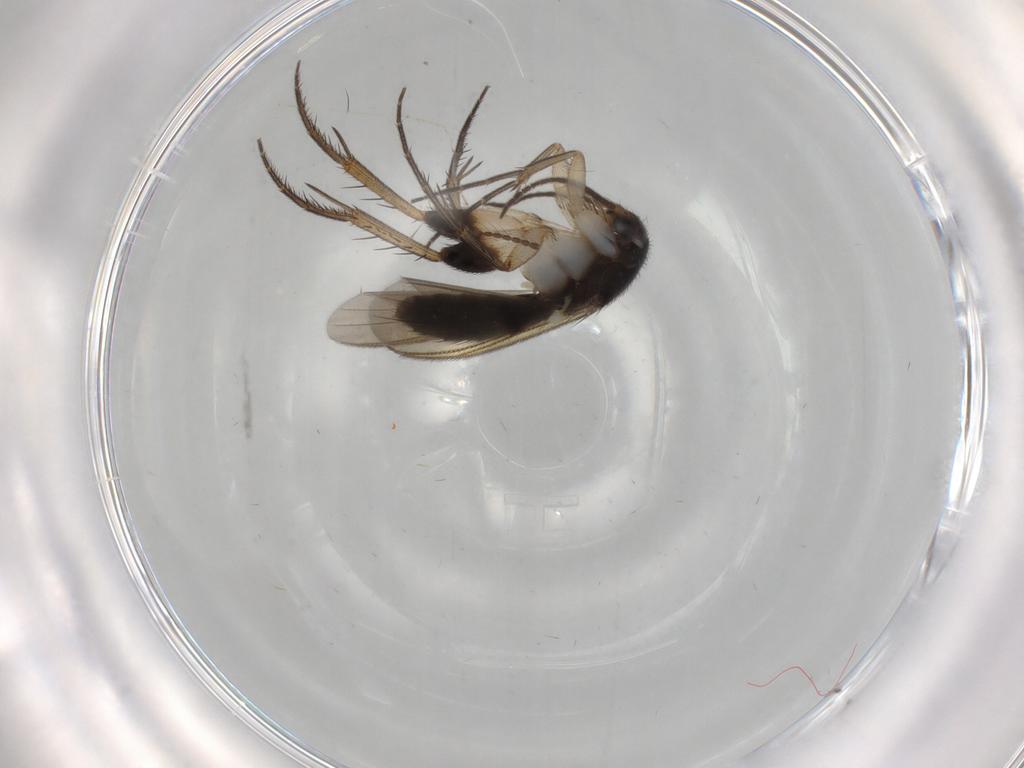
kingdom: Animalia
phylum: Arthropoda
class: Insecta
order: Diptera
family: Limoniidae
